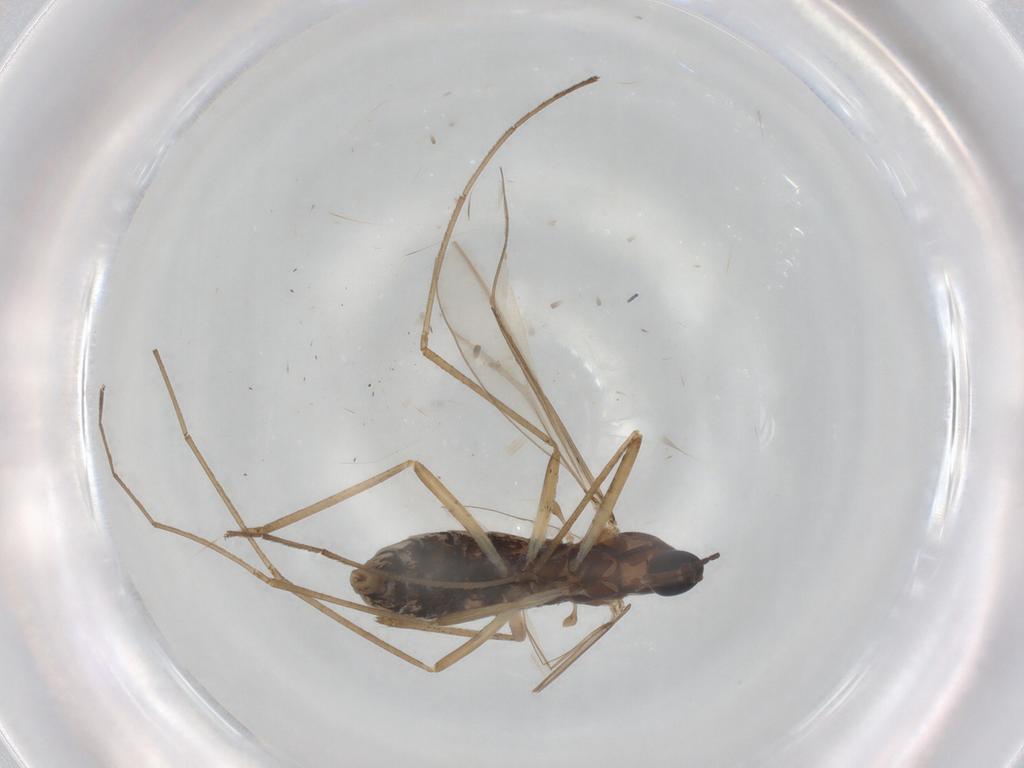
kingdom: Animalia
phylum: Arthropoda
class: Insecta
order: Diptera
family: Cecidomyiidae
